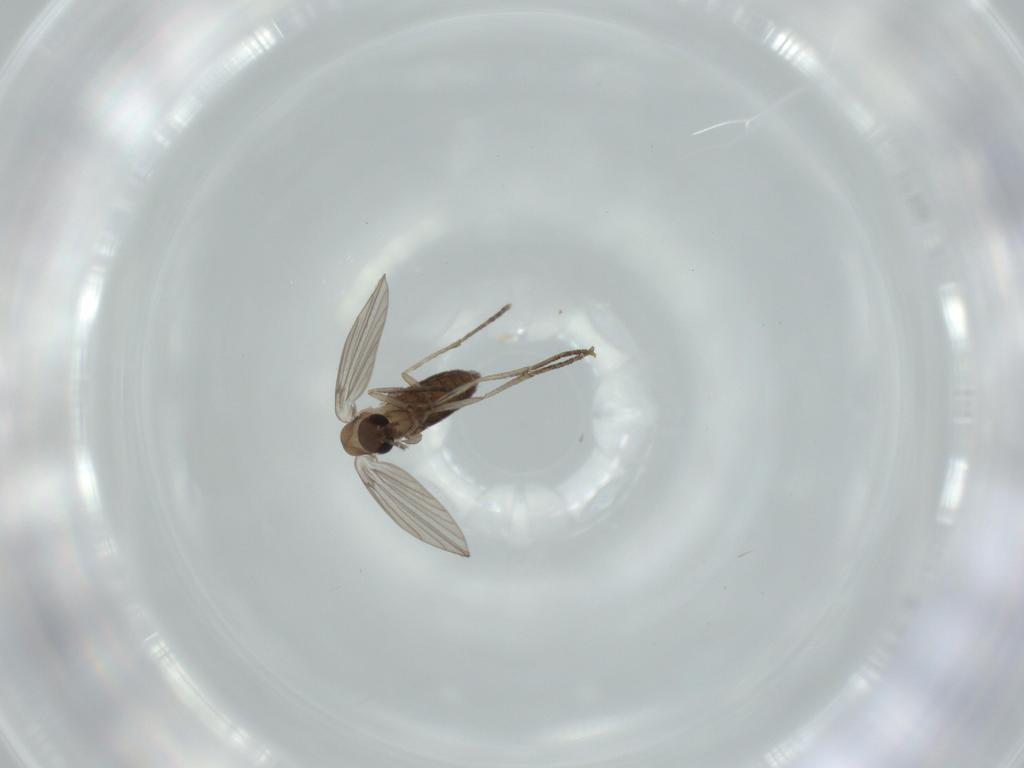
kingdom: Animalia
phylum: Arthropoda
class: Insecta
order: Diptera
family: Psychodidae
